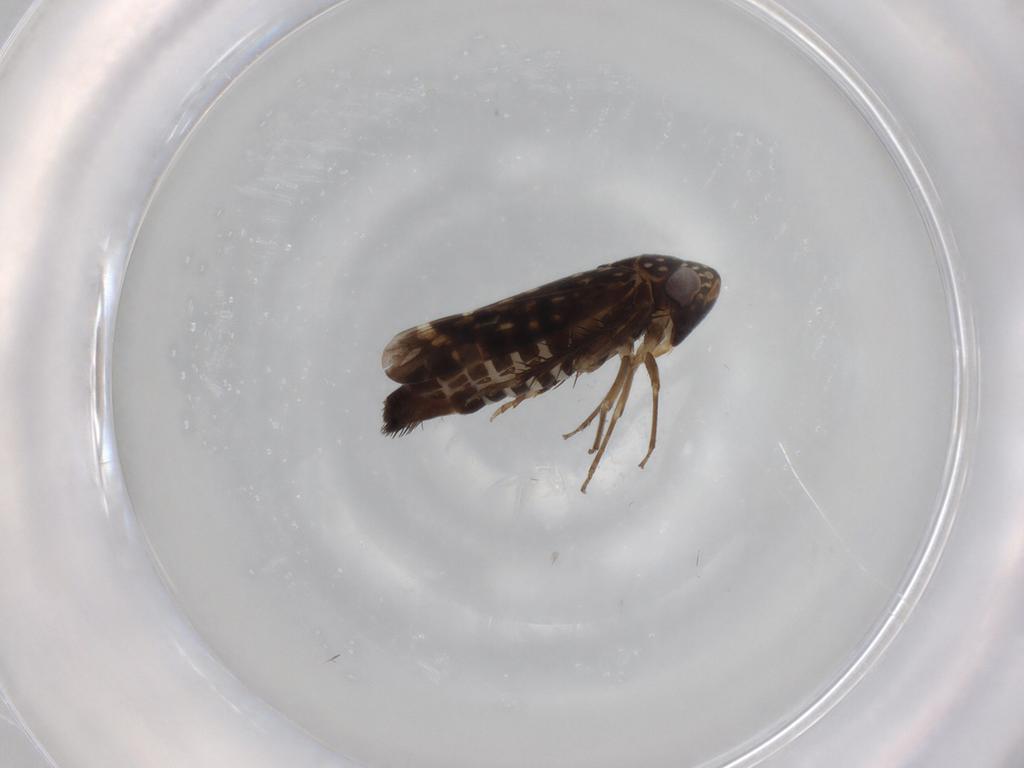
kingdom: Animalia
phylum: Arthropoda
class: Insecta
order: Hemiptera
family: Cicadellidae
